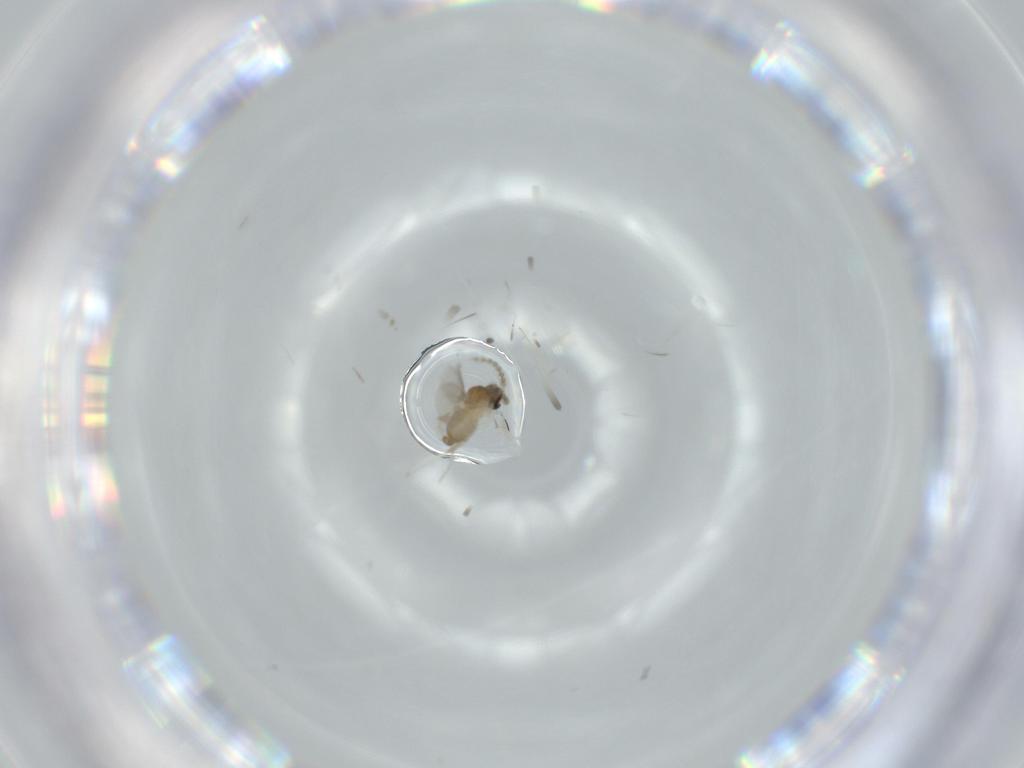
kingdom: Animalia
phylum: Arthropoda
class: Insecta
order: Diptera
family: Cecidomyiidae
